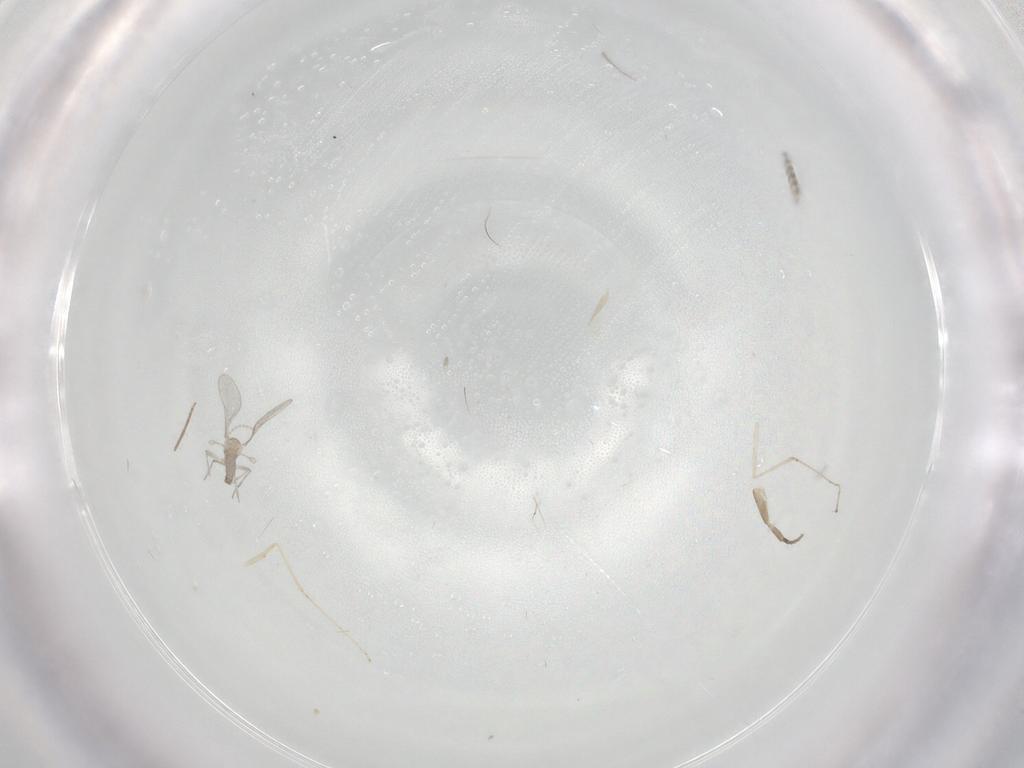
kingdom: Animalia
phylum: Arthropoda
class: Insecta
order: Diptera
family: Phoridae
